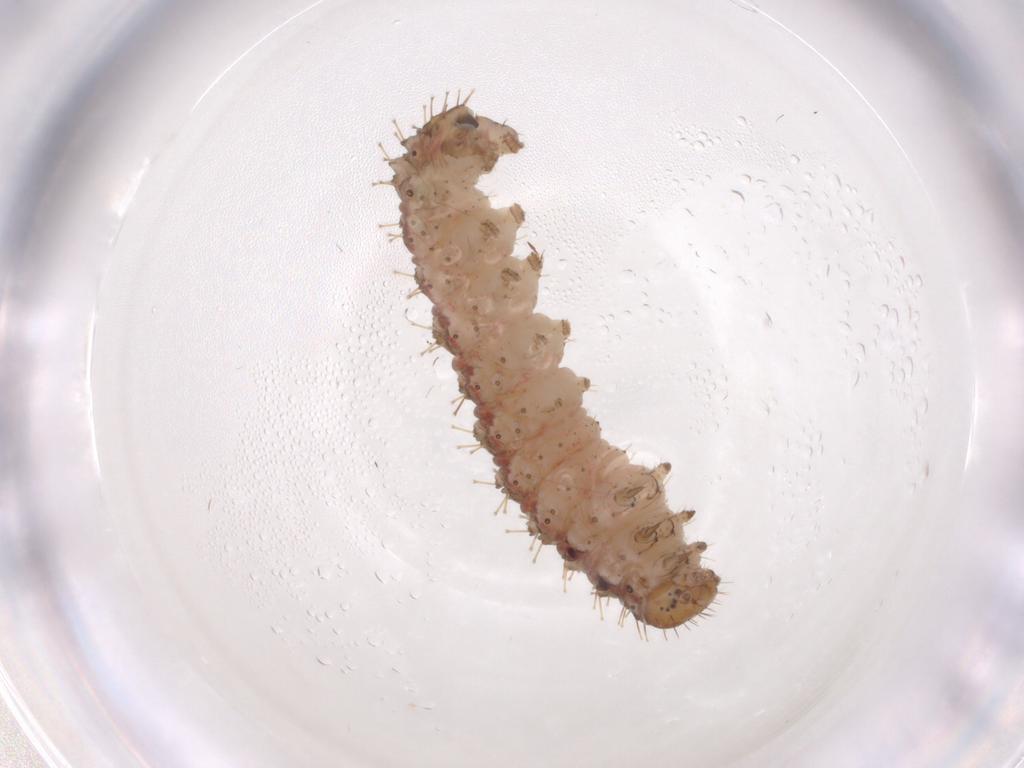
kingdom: Animalia
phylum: Arthropoda
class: Insecta
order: Lepidoptera
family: Noctuidae
